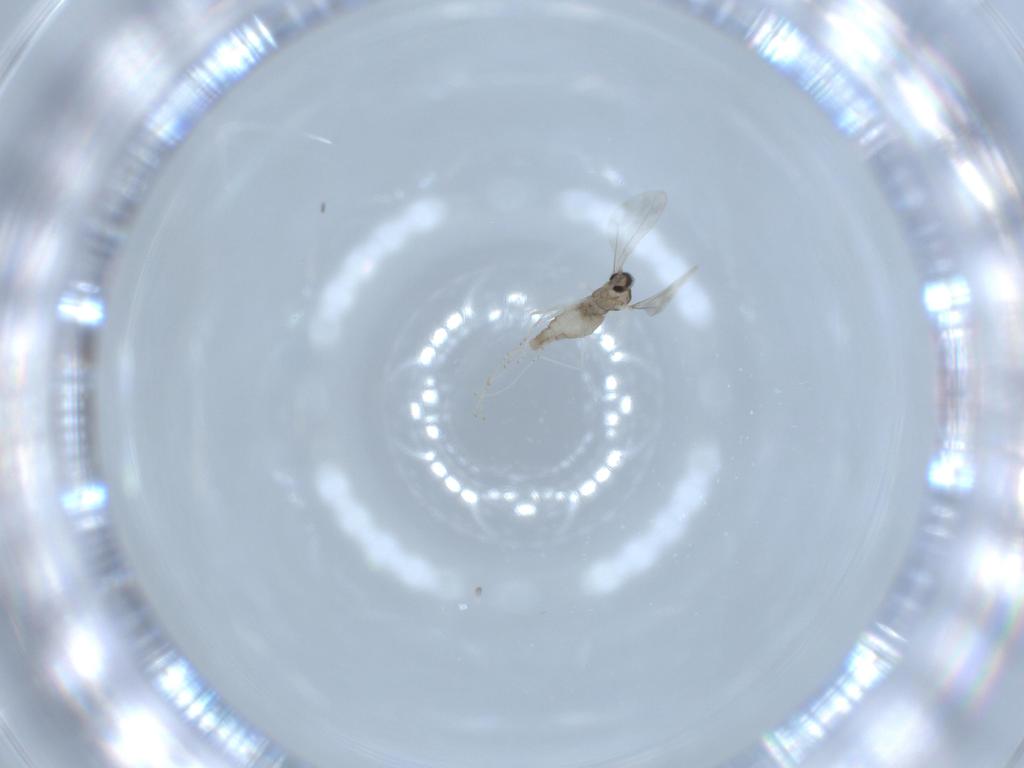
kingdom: Animalia
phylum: Arthropoda
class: Insecta
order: Diptera
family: Cecidomyiidae
